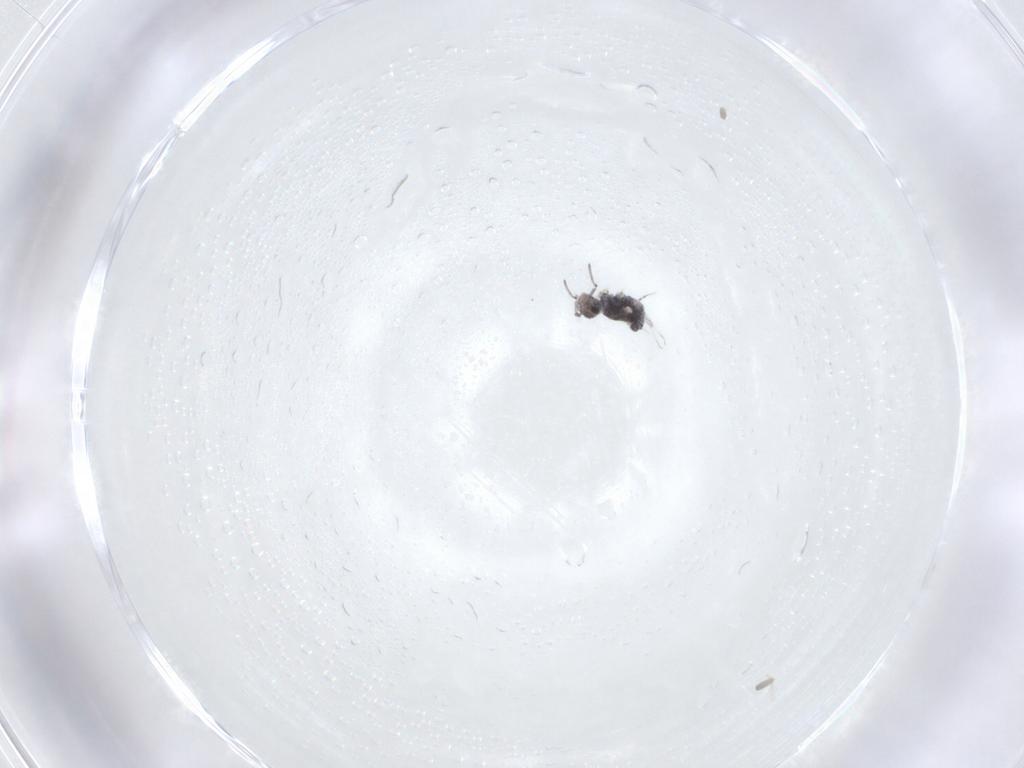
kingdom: Animalia
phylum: Arthropoda
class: Collembola
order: Symphypleona
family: Bourletiellidae
